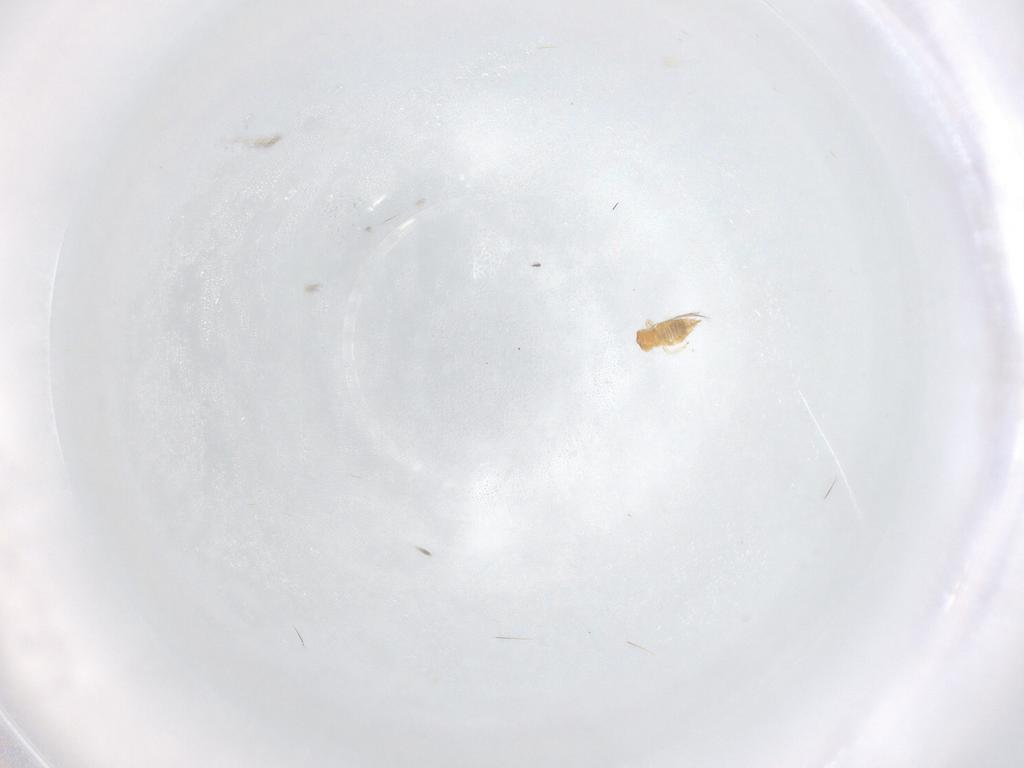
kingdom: Animalia
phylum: Arthropoda
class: Insecta
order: Thysanoptera
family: Thripidae
